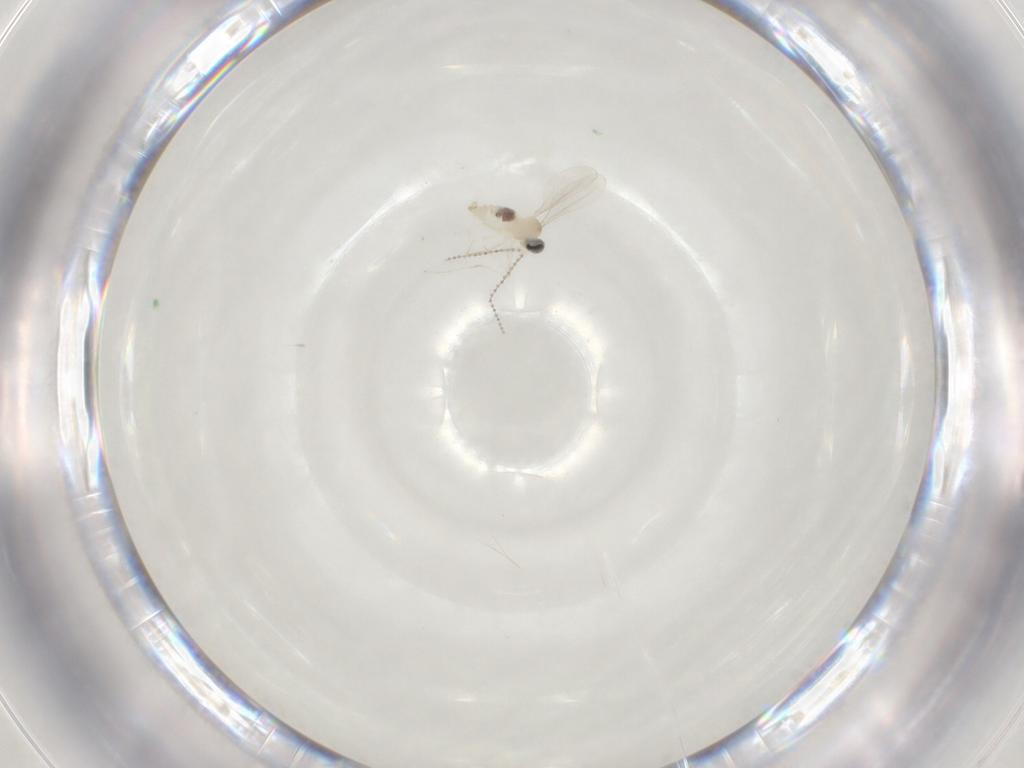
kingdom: Animalia
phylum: Arthropoda
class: Insecta
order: Diptera
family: Cecidomyiidae
